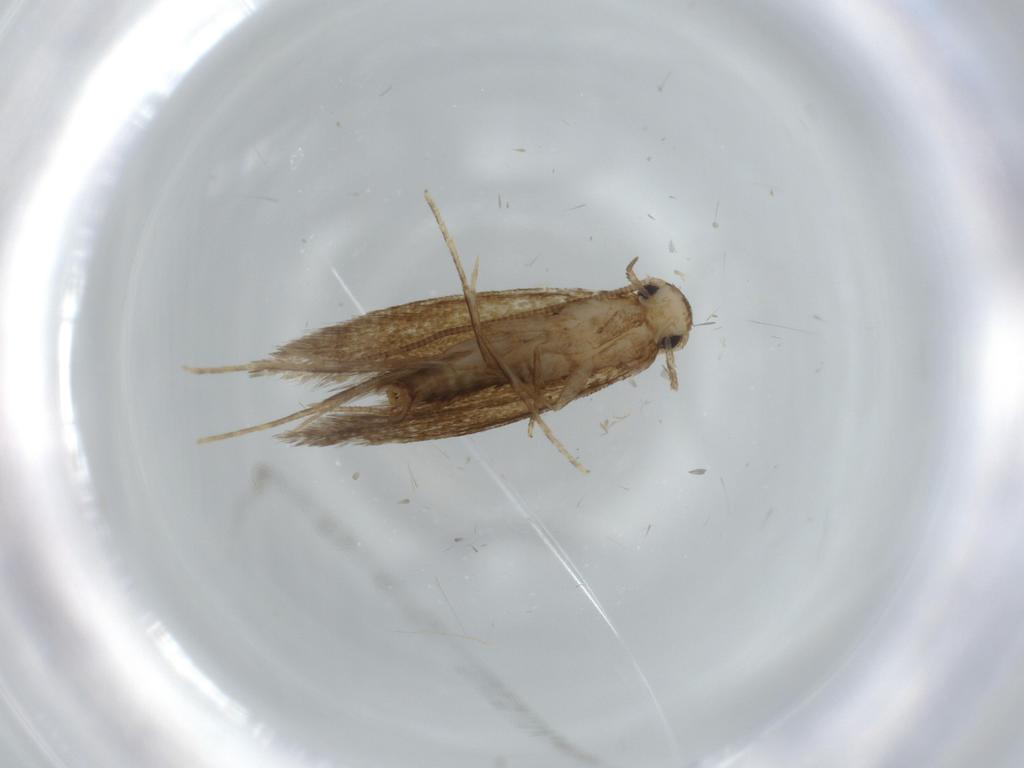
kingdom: Animalia
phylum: Arthropoda
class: Insecta
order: Lepidoptera
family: Tineidae
